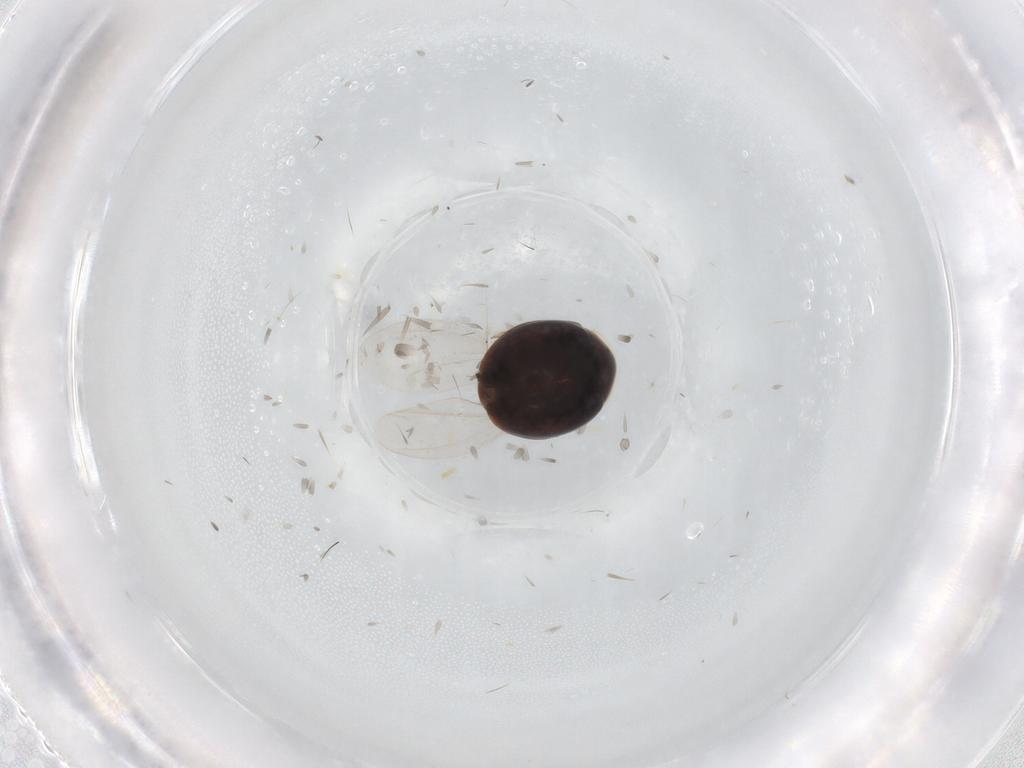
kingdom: Animalia
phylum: Arthropoda
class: Insecta
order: Coleoptera
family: Corylophidae
